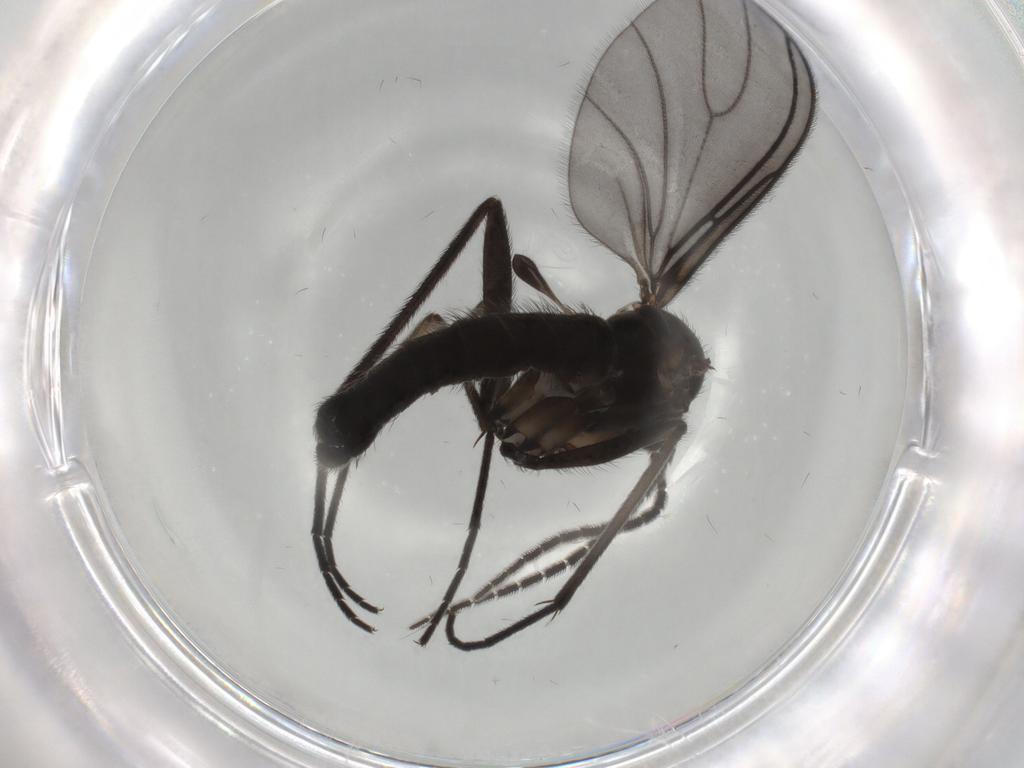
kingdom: Animalia
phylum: Arthropoda
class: Insecta
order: Diptera
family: Sciaridae
